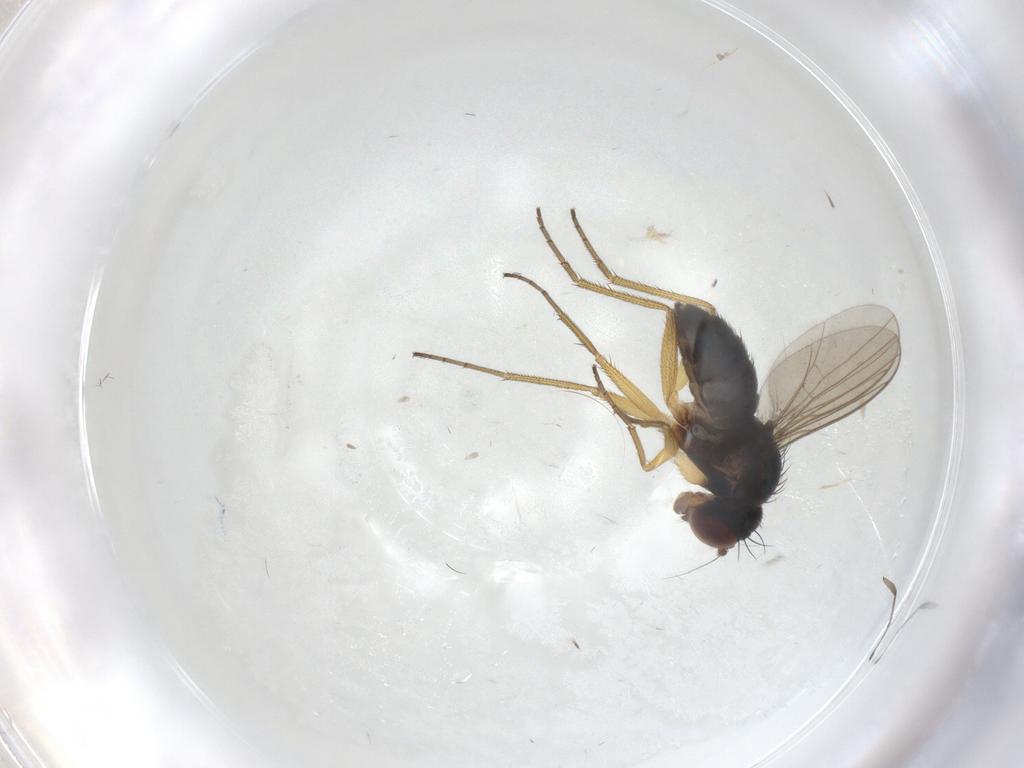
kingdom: Animalia
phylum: Arthropoda
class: Insecta
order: Diptera
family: Dolichopodidae
